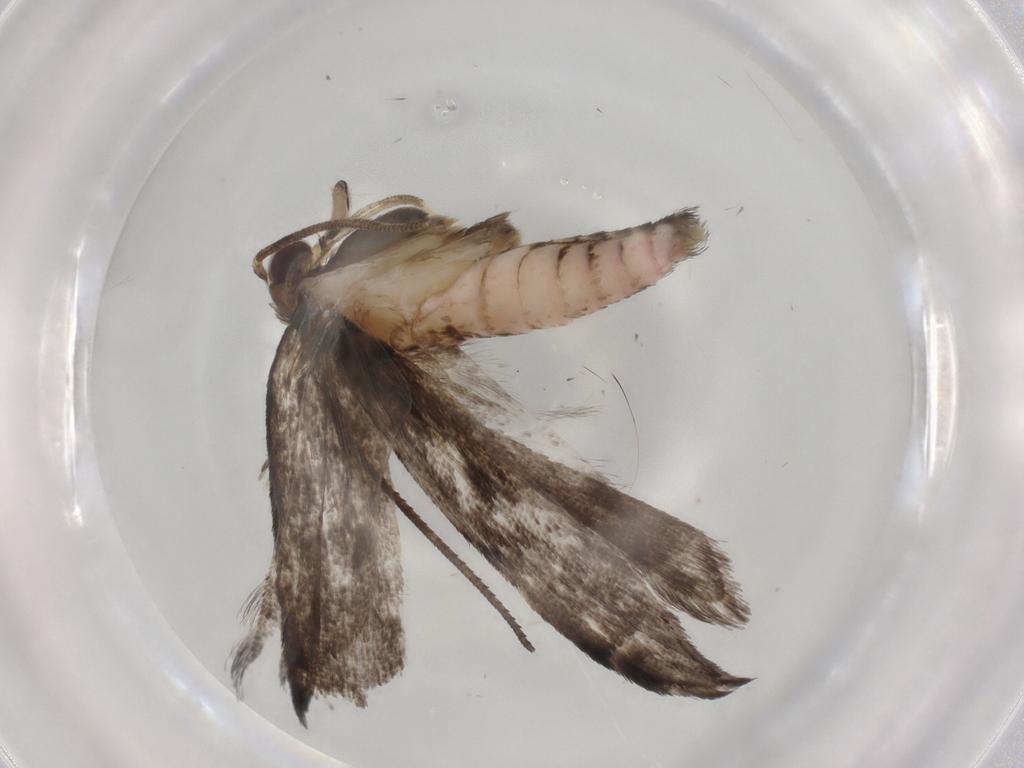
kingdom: Animalia
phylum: Arthropoda
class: Insecta
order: Lepidoptera
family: Gelechiidae
